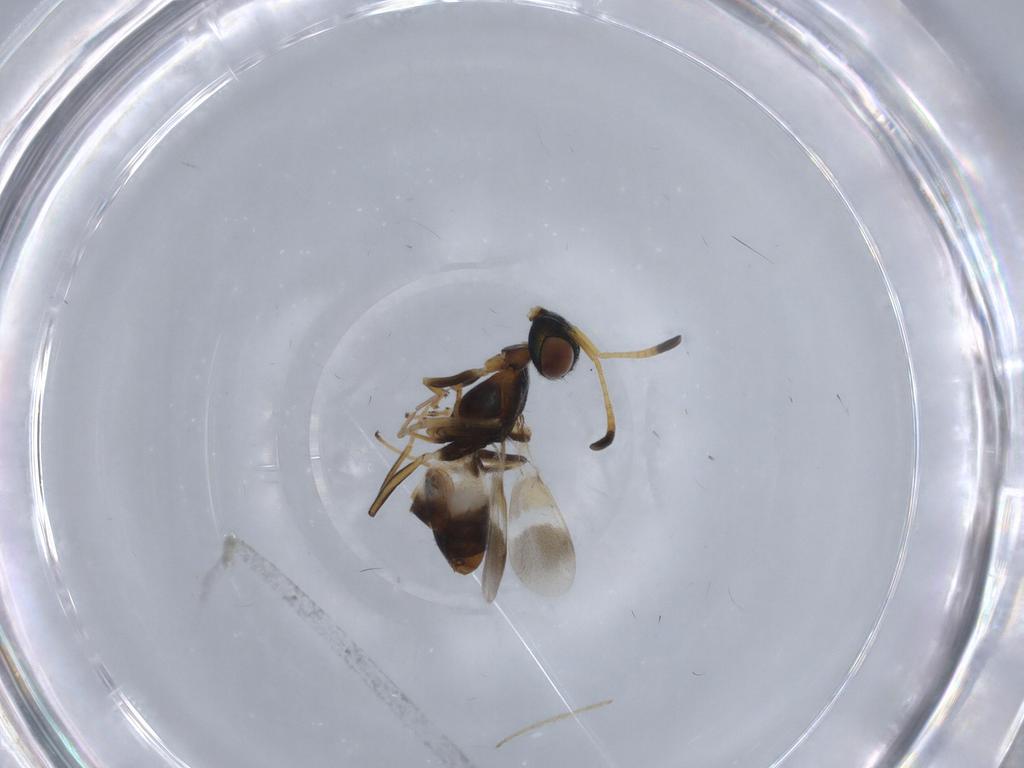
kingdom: Animalia
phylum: Arthropoda
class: Insecta
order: Hymenoptera
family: Eupelmidae
